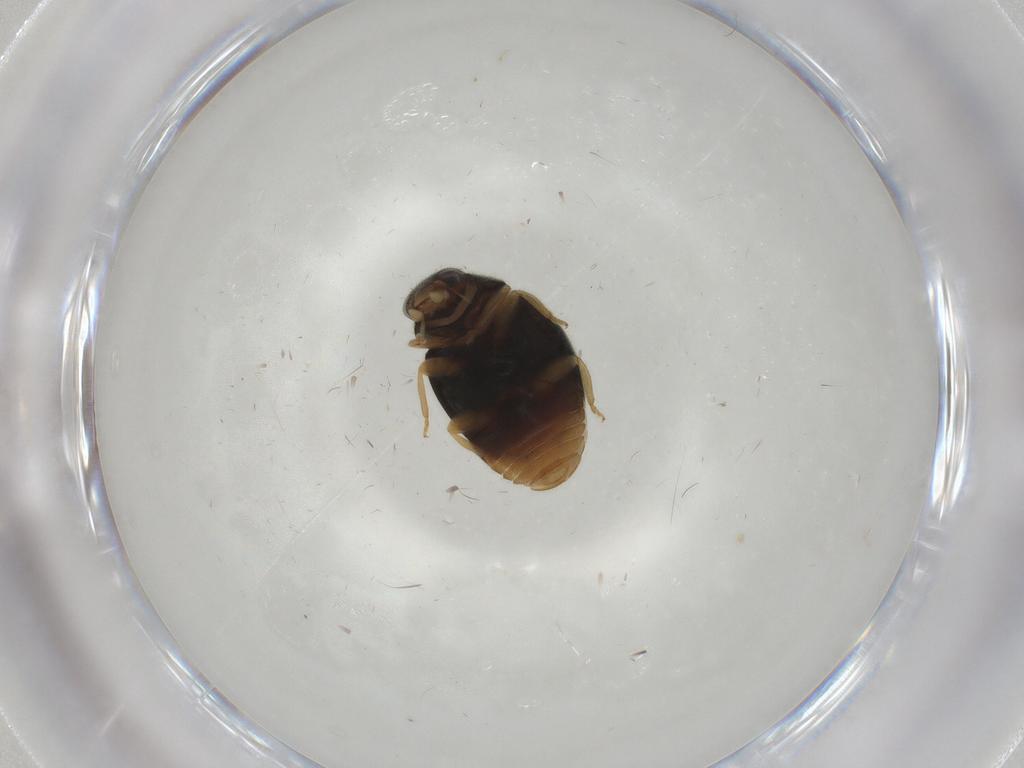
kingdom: Animalia
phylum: Arthropoda
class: Insecta
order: Coleoptera
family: Coccinellidae
